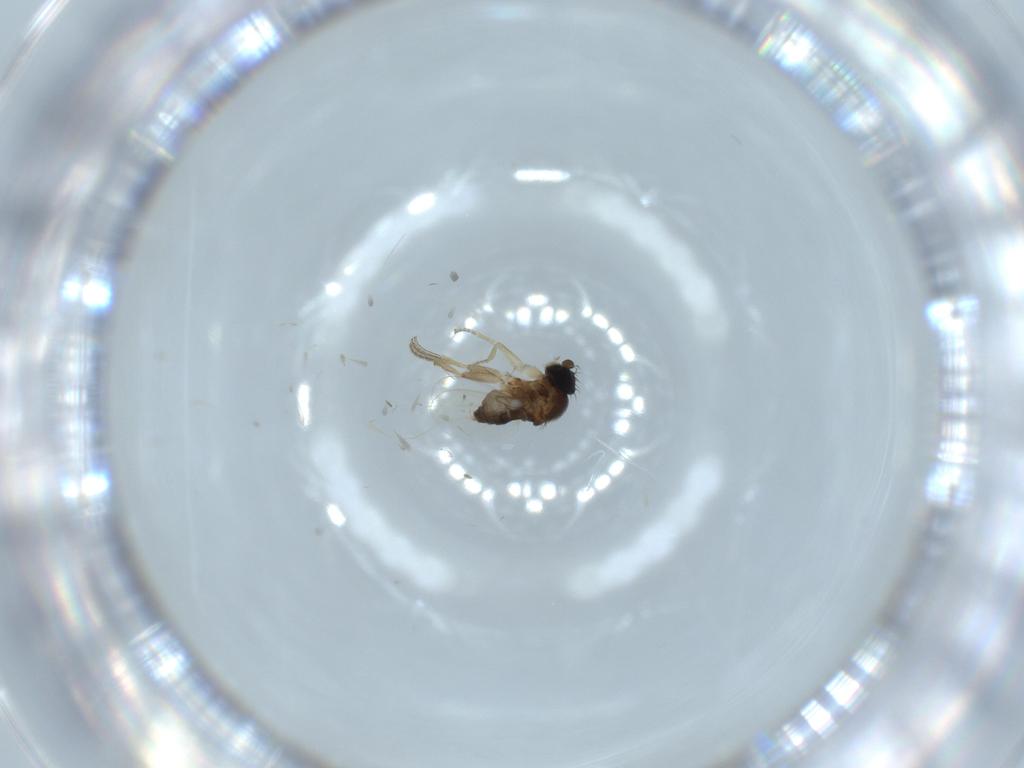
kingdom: Animalia
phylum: Arthropoda
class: Insecta
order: Diptera
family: Phoridae
